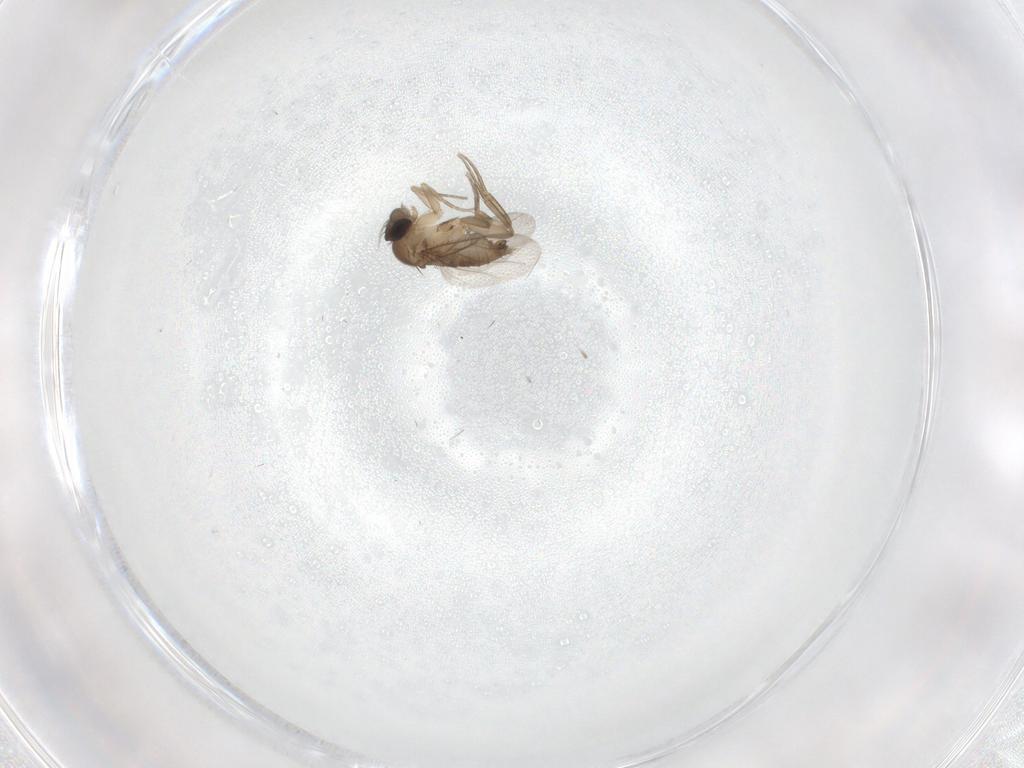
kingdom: Animalia
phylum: Arthropoda
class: Insecta
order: Diptera
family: Phoridae
